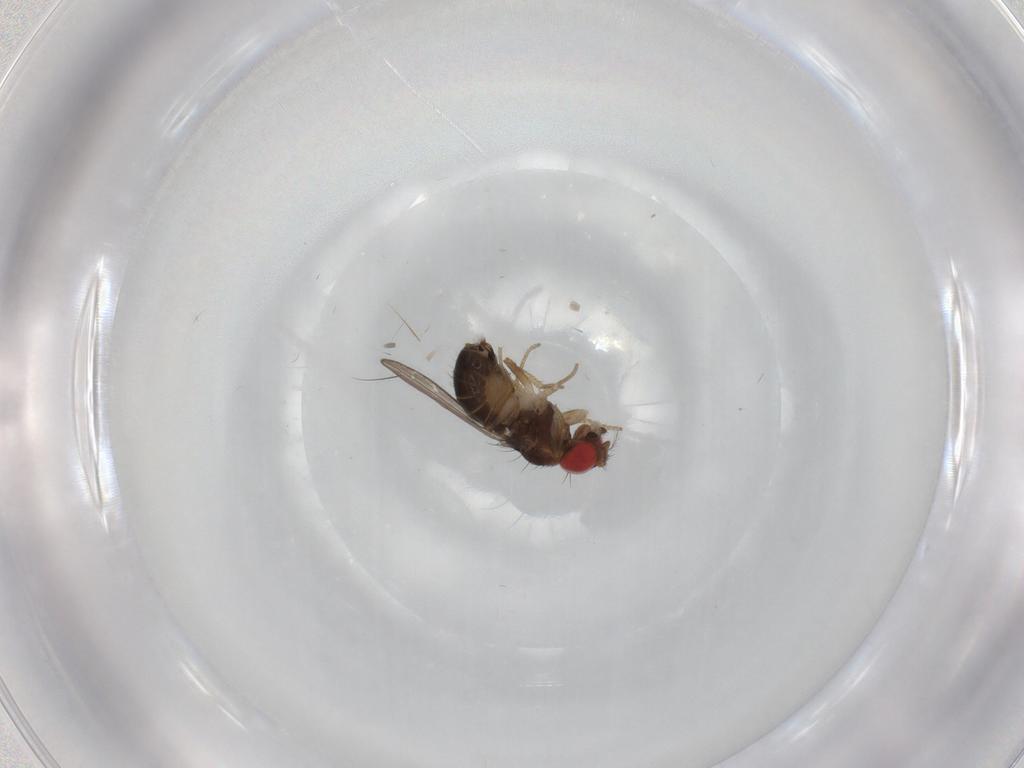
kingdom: Animalia
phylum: Arthropoda
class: Insecta
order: Diptera
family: Drosophilidae
